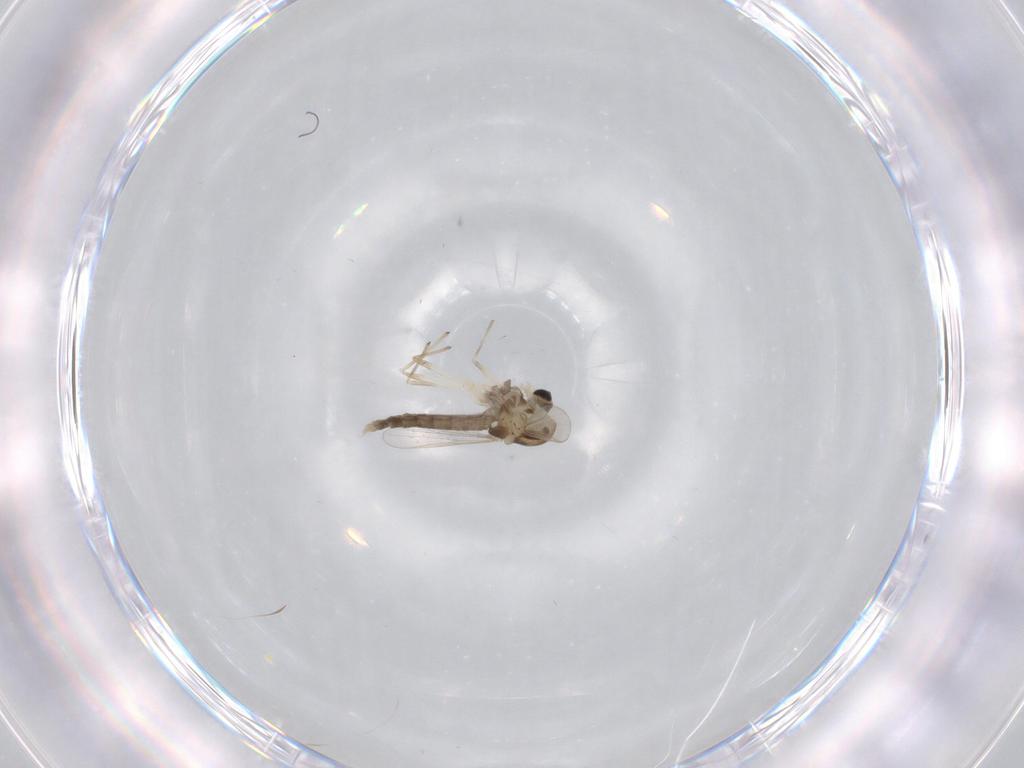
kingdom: Animalia
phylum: Arthropoda
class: Insecta
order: Diptera
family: Chironomidae
